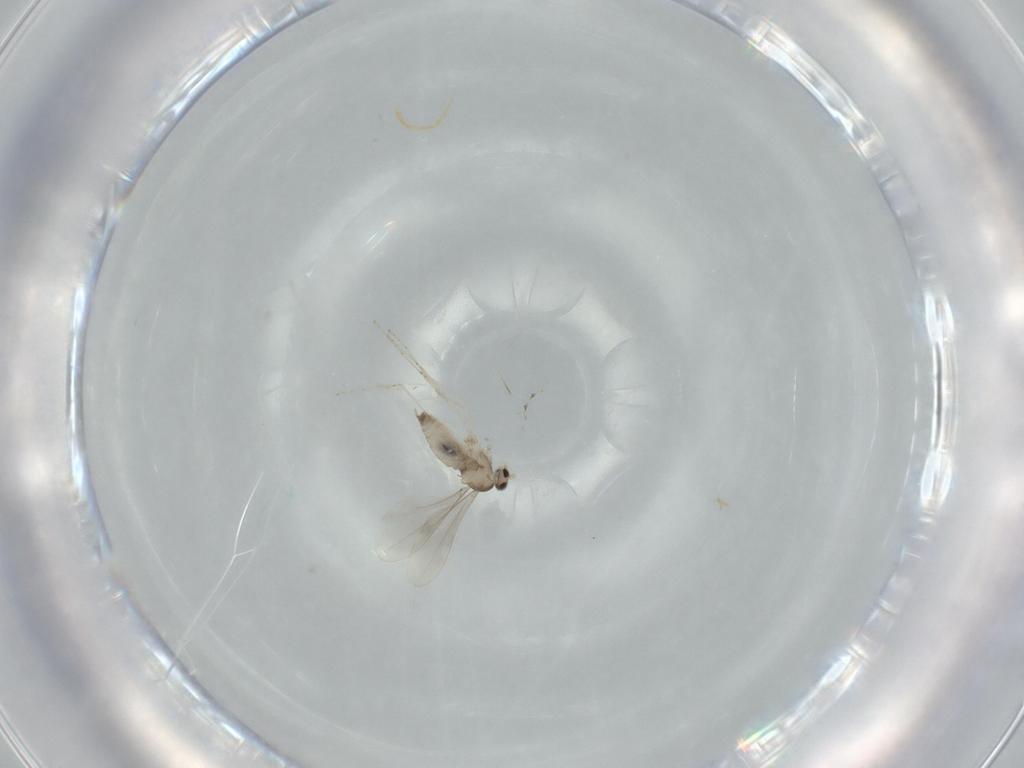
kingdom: Animalia
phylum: Arthropoda
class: Insecta
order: Diptera
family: Cecidomyiidae
